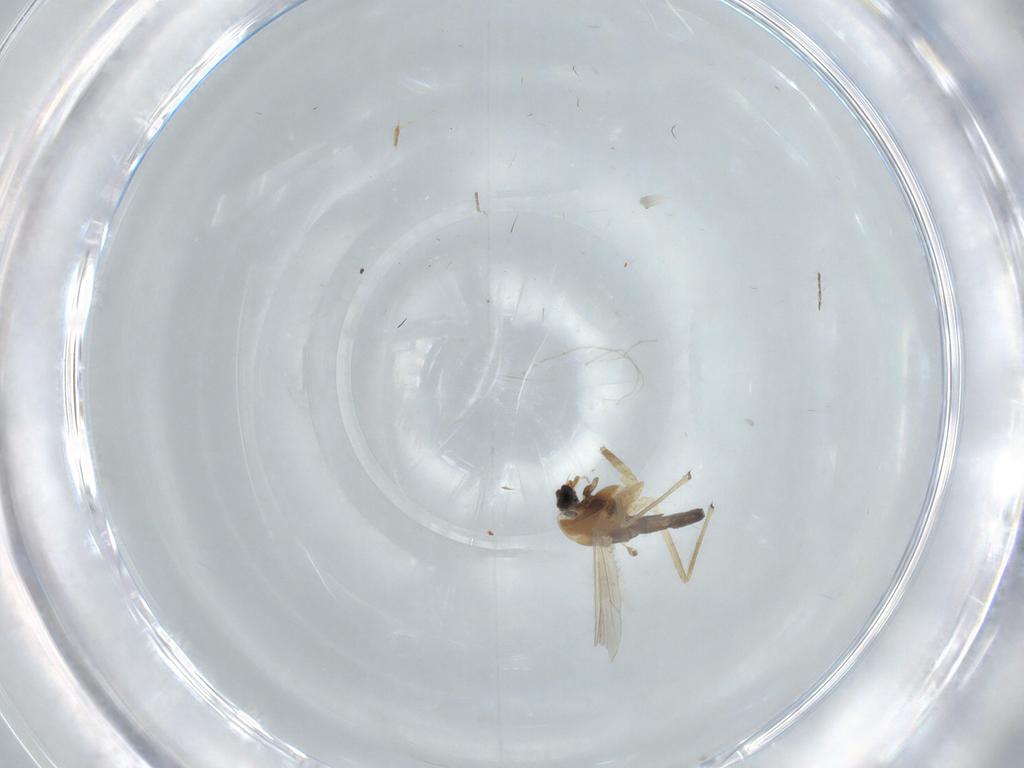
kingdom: Animalia
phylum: Arthropoda
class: Insecta
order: Diptera
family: Chironomidae
